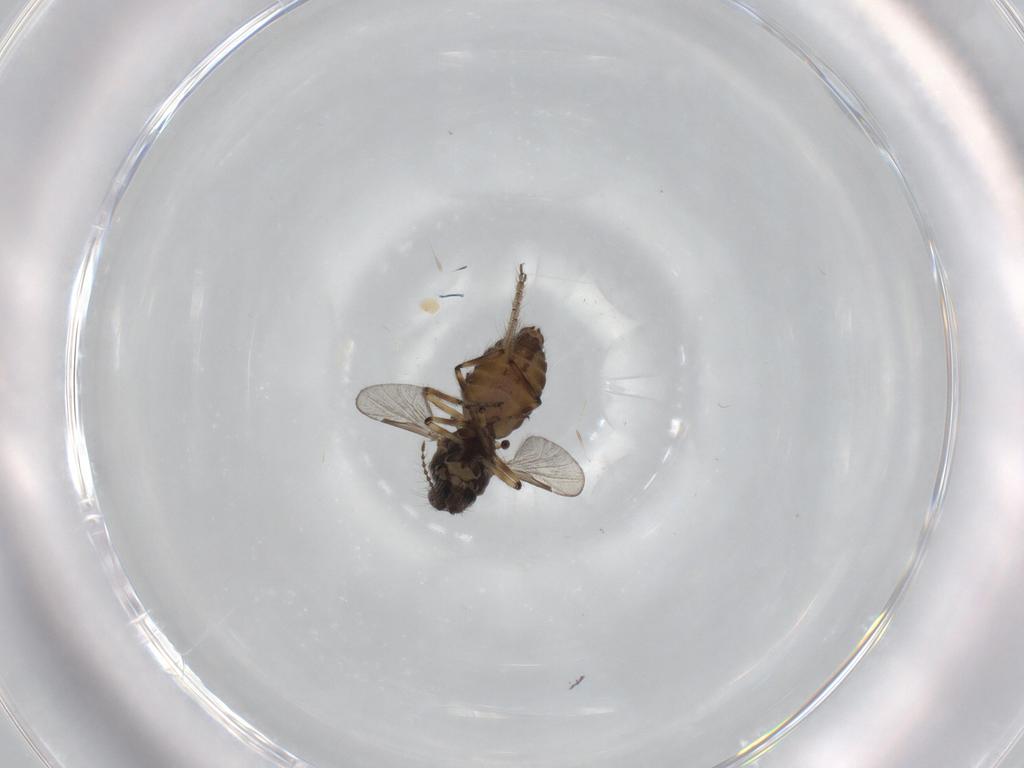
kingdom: Animalia
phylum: Arthropoda
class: Insecta
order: Diptera
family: Ceratopogonidae
